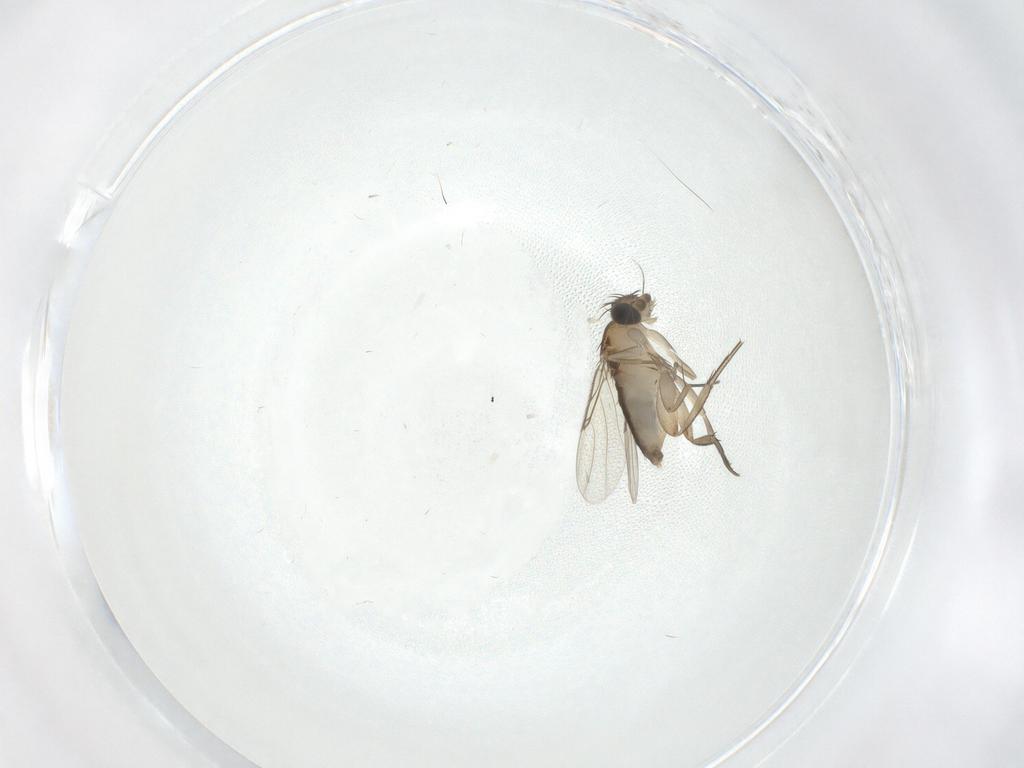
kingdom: Animalia
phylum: Arthropoda
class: Insecta
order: Diptera
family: Phoridae
